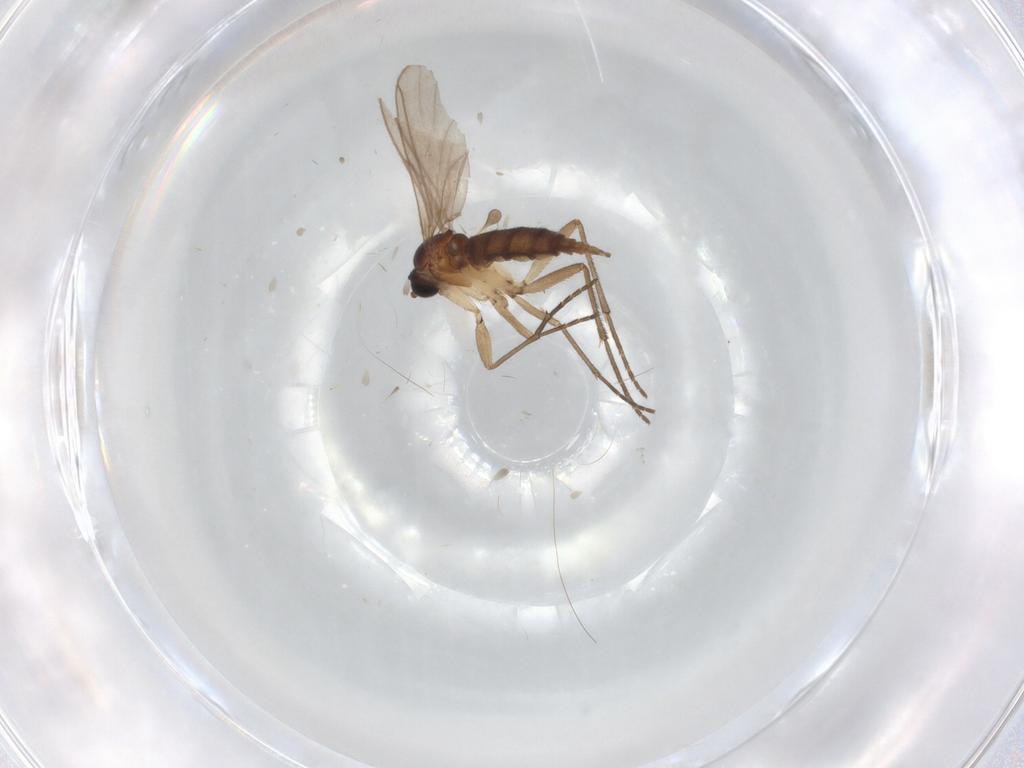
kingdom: Animalia
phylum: Arthropoda
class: Insecta
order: Diptera
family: Sciaridae
